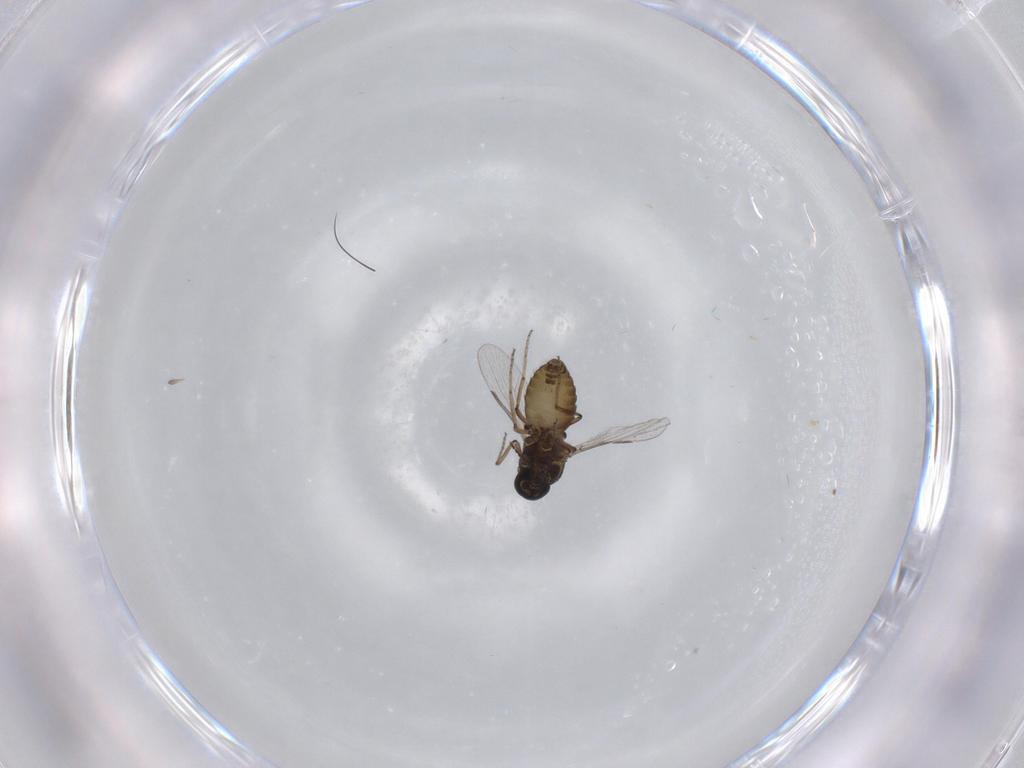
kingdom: Animalia
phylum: Arthropoda
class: Insecta
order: Diptera
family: Ceratopogonidae
